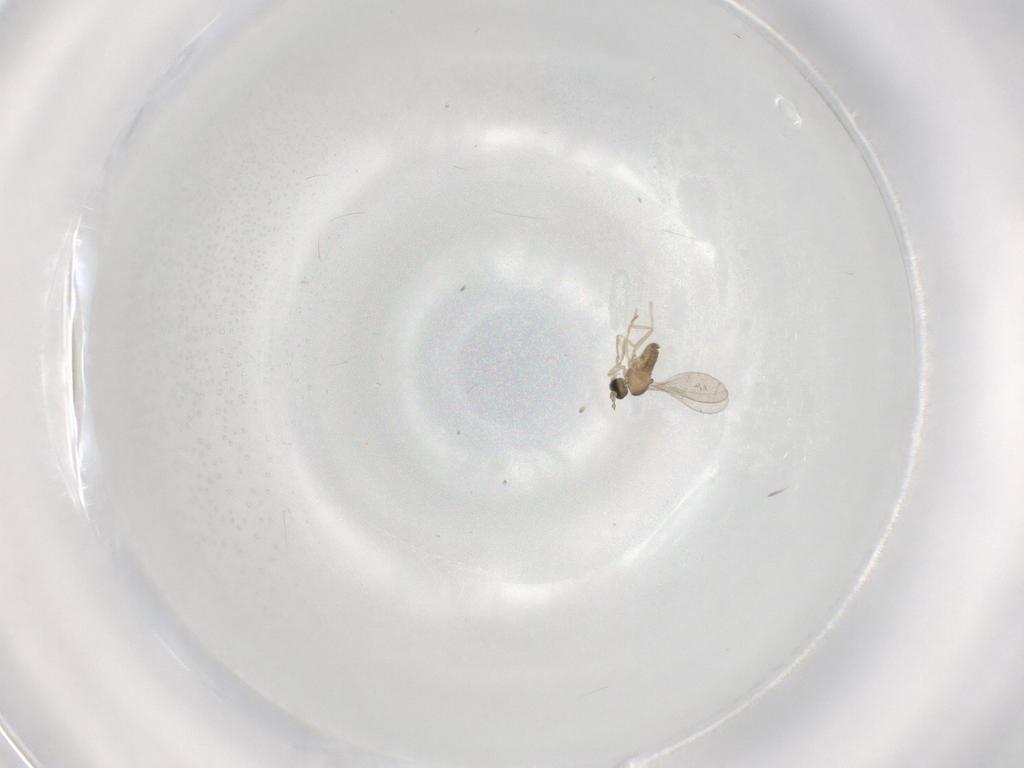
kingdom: Animalia
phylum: Arthropoda
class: Insecta
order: Diptera
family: Cecidomyiidae
